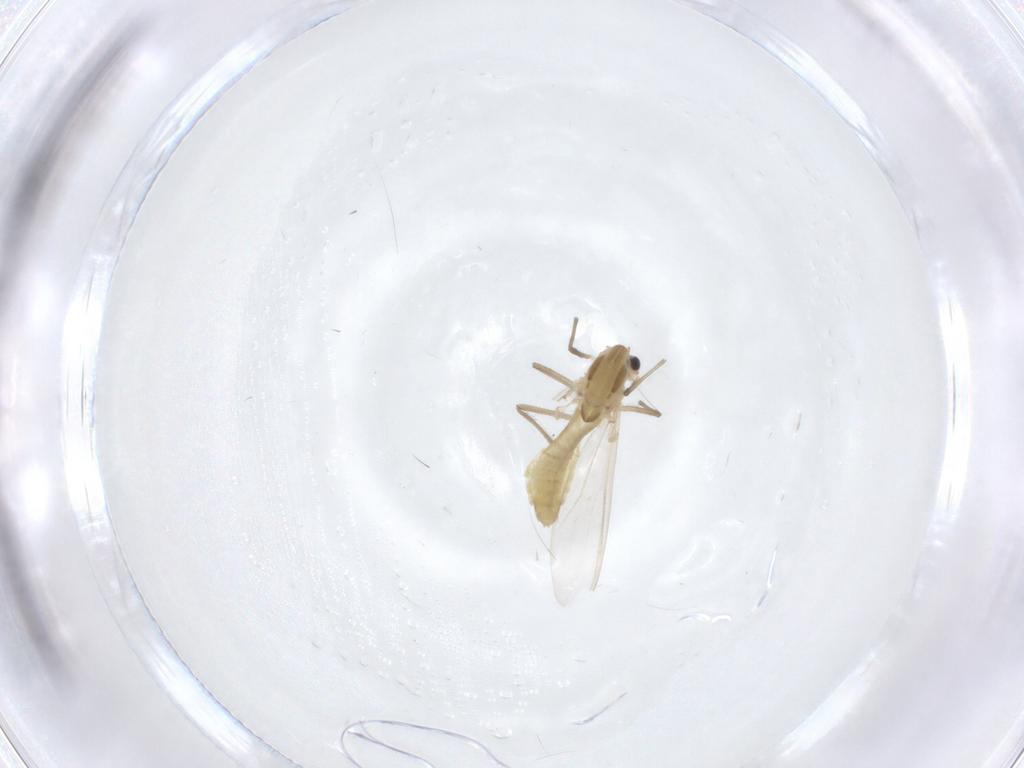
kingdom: Animalia
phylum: Arthropoda
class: Insecta
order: Diptera
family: Chironomidae
